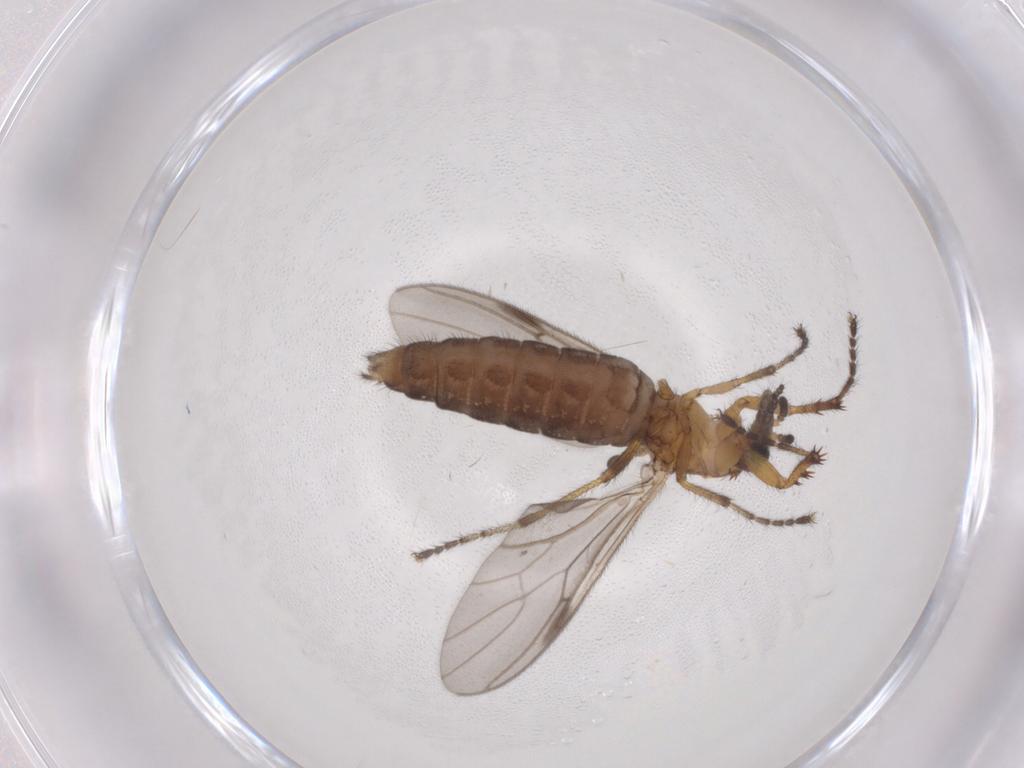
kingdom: Animalia
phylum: Arthropoda
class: Insecta
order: Diptera
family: Bibionidae
